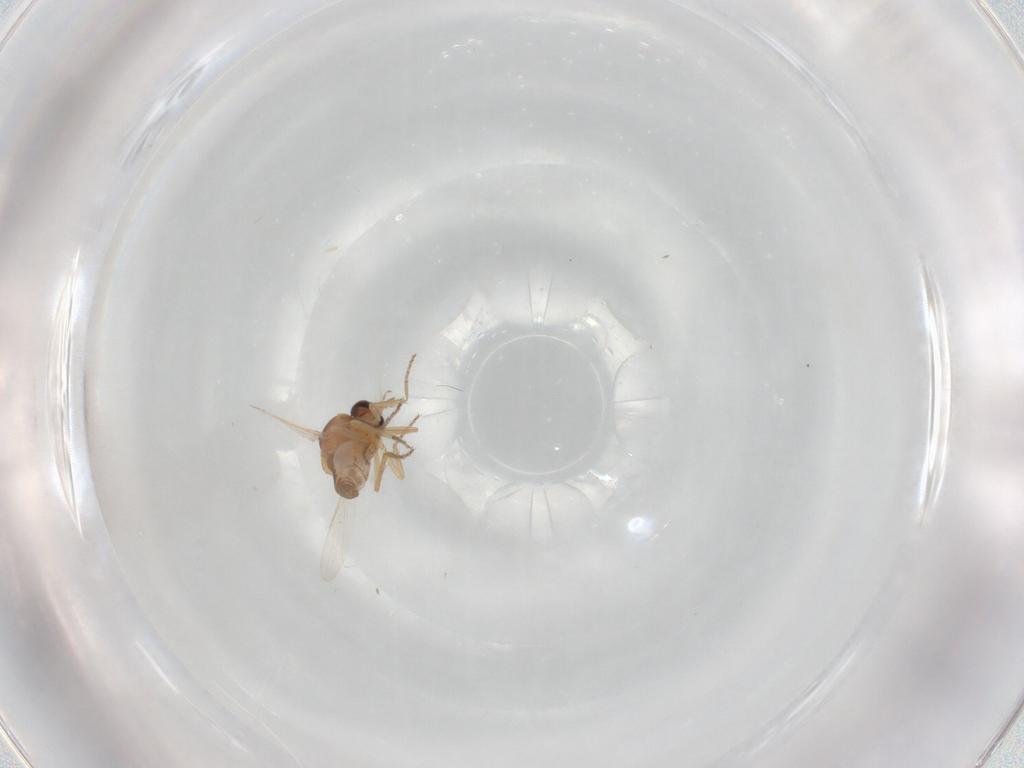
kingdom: Animalia
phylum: Arthropoda
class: Insecta
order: Diptera
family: Ceratopogonidae
